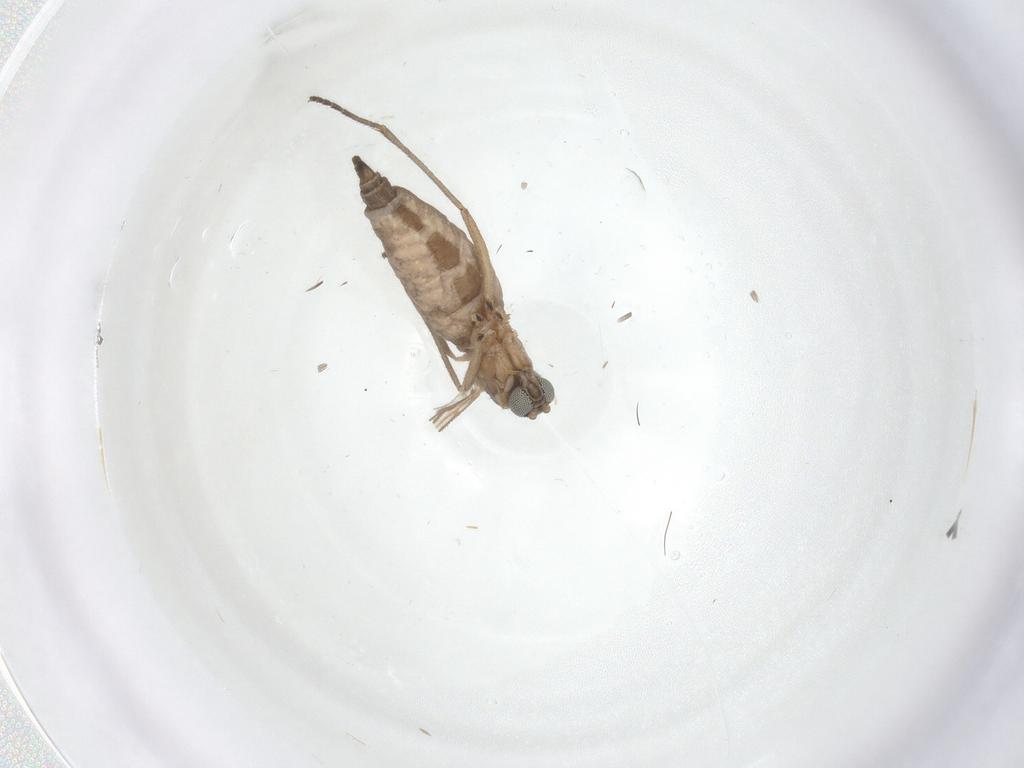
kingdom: Animalia
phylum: Arthropoda
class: Insecta
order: Diptera
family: Sciaridae
